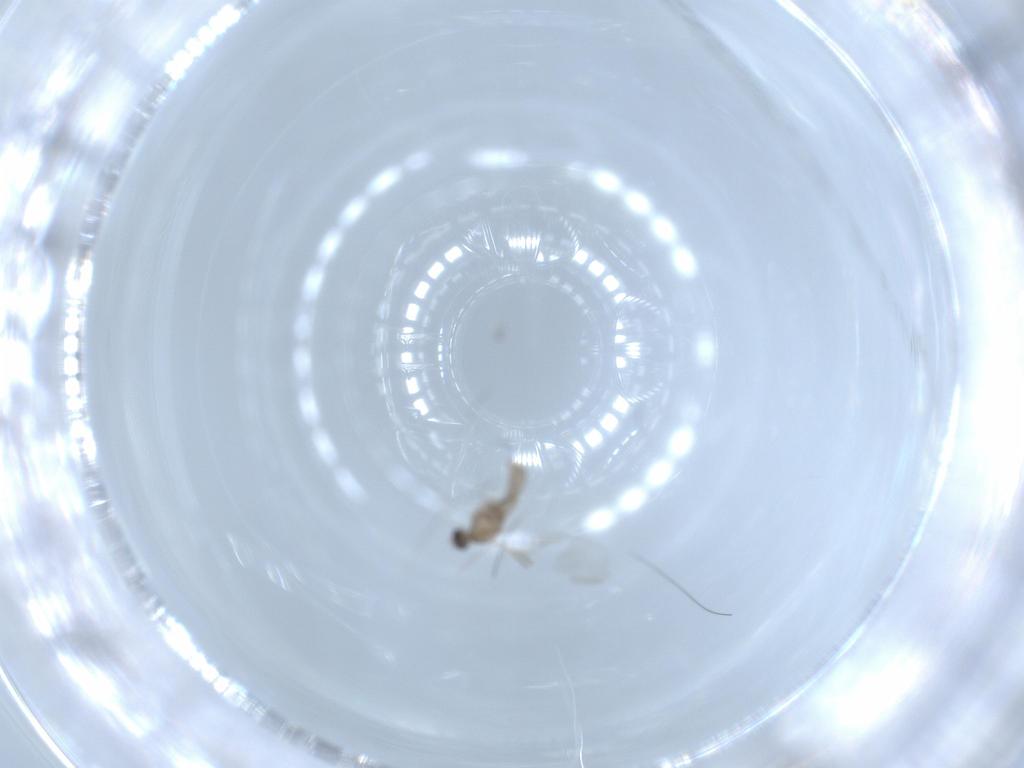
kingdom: Animalia
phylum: Arthropoda
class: Insecta
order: Diptera
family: Cecidomyiidae
